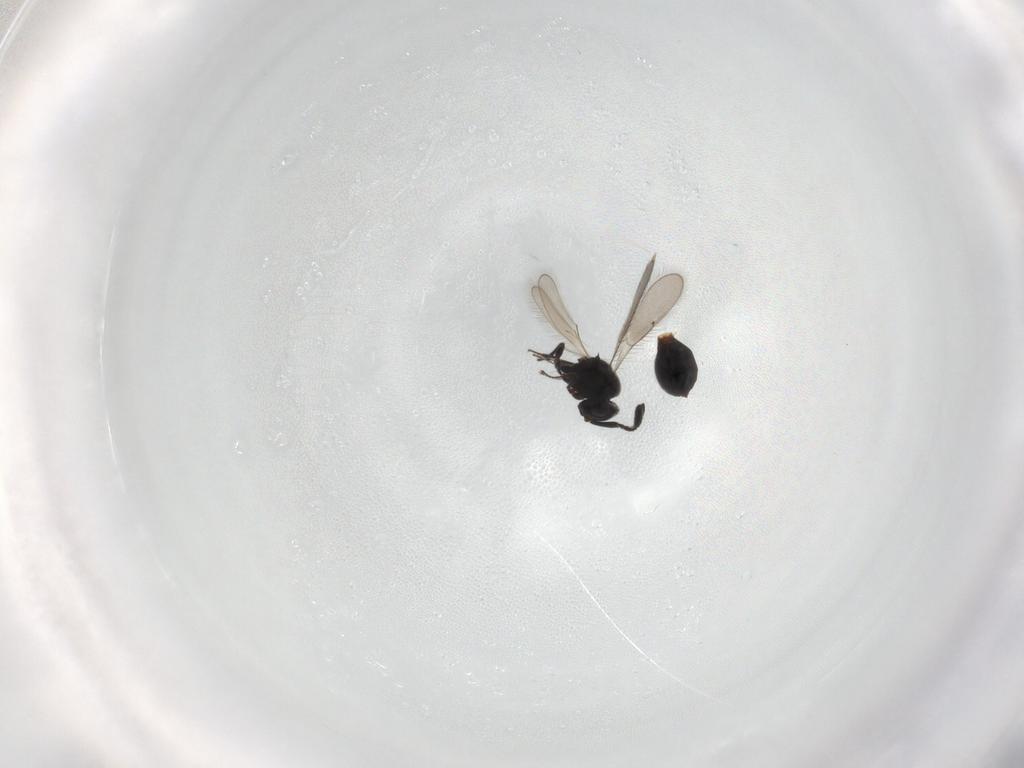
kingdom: Animalia
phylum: Arthropoda
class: Insecta
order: Hymenoptera
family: Scelionidae
